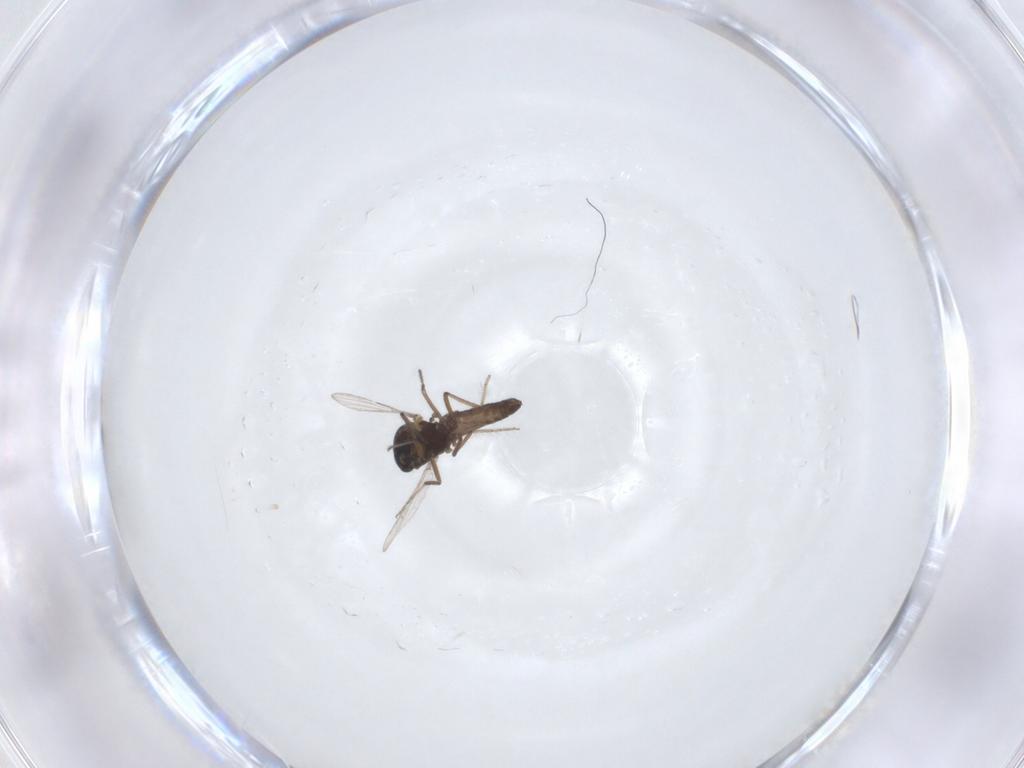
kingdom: Animalia
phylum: Arthropoda
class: Insecta
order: Diptera
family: Ceratopogonidae
